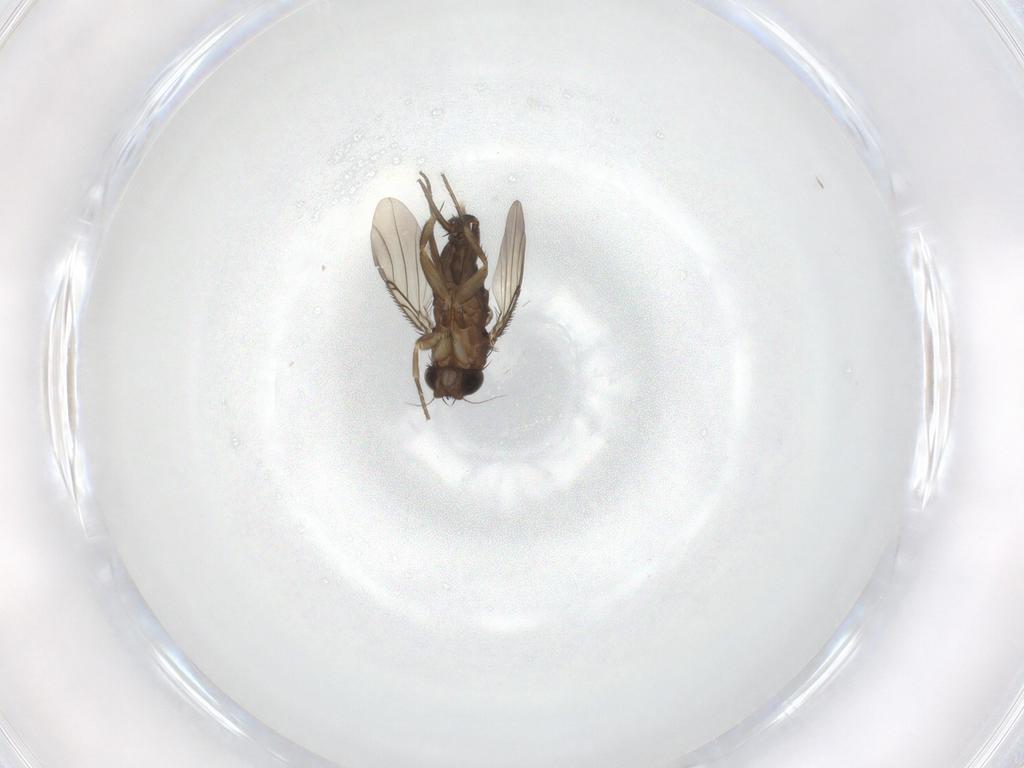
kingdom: Animalia
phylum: Arthropoda
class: Insecta
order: Diptera
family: Phoridae
